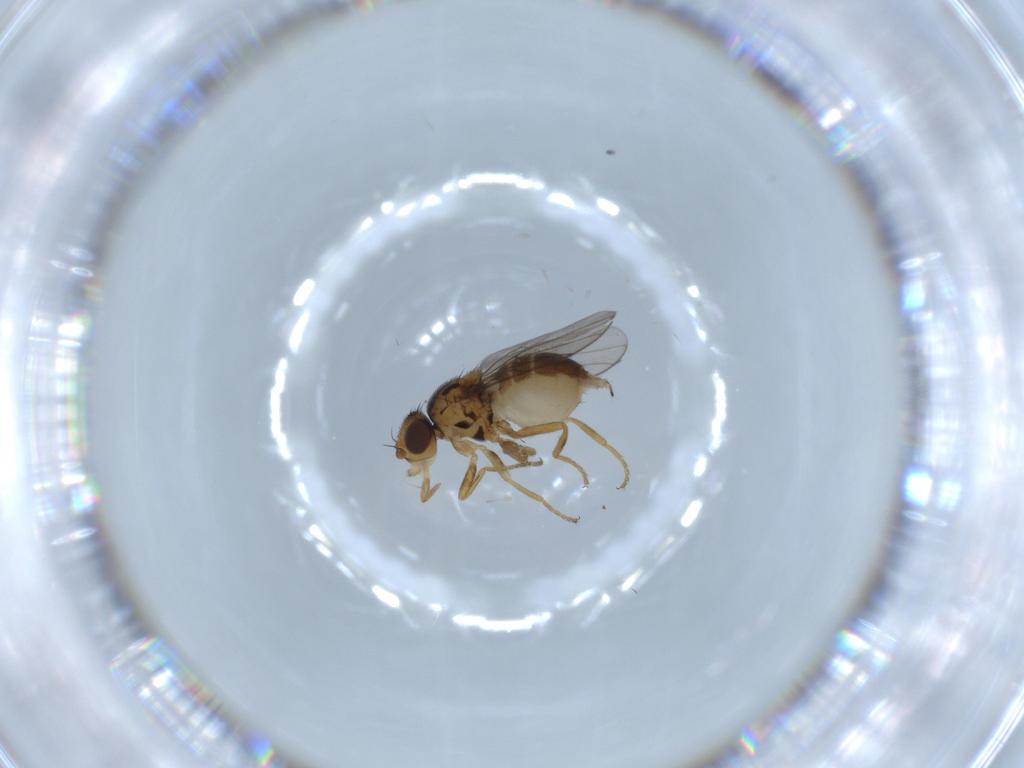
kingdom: Animalia
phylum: Arthropoda
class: Insecta
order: Diptera
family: Chloropidae
